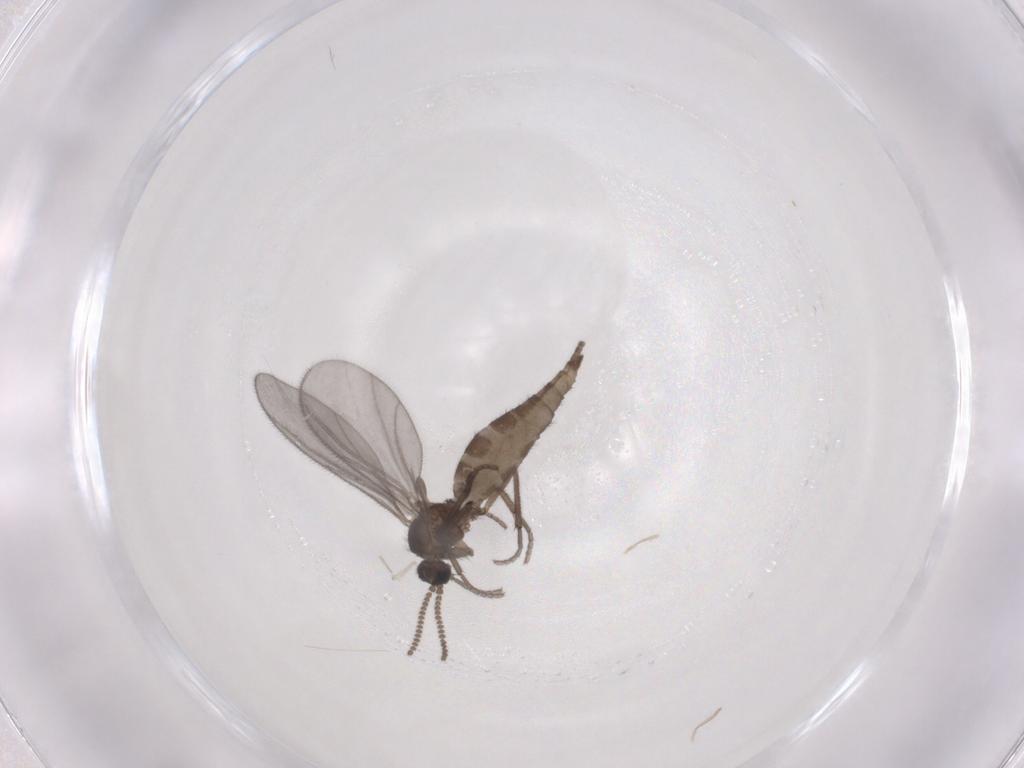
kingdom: Animalia
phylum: Arthropoda
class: Insecta
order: Diptera
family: Sciaridae
